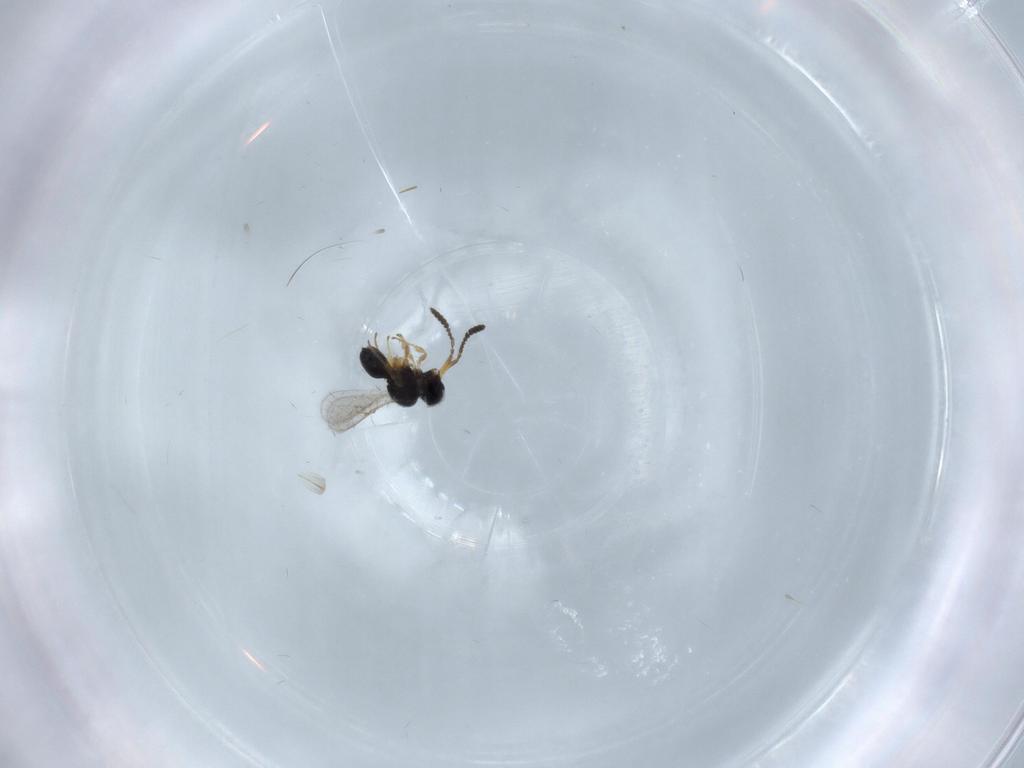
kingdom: Animalia
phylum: Arthropoda
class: Insecta
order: Hymenoptera
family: Scelionidae
